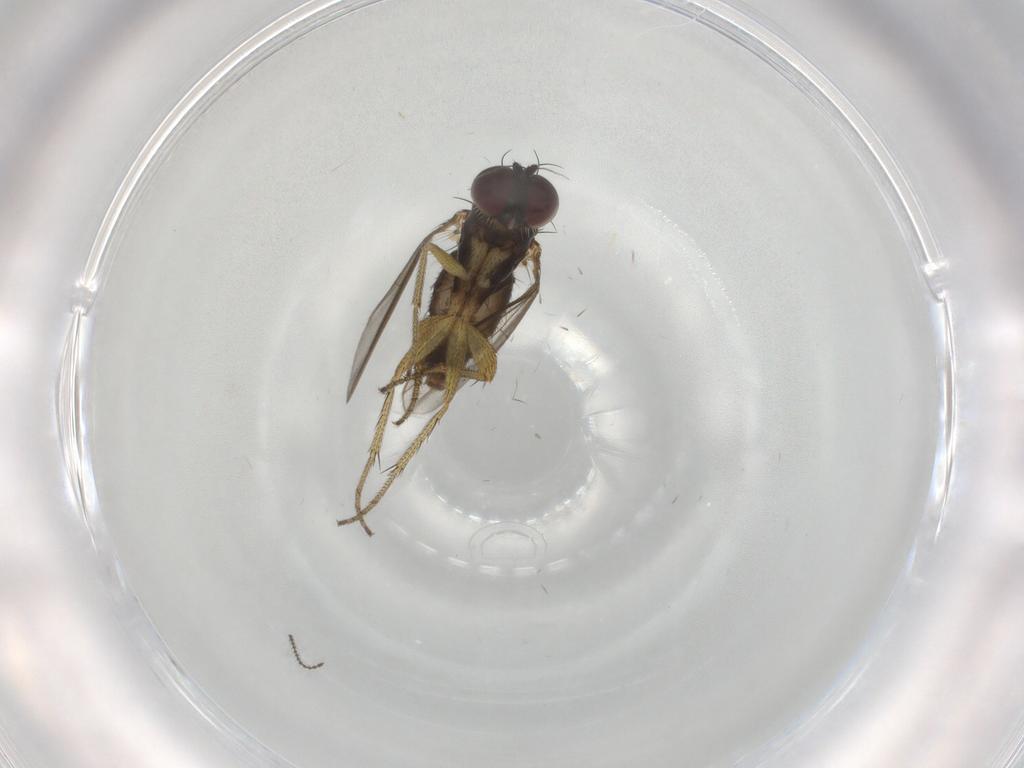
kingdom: Animalia
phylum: Arthropoda
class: Insecta
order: Diptera
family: Ceratopogonidae
